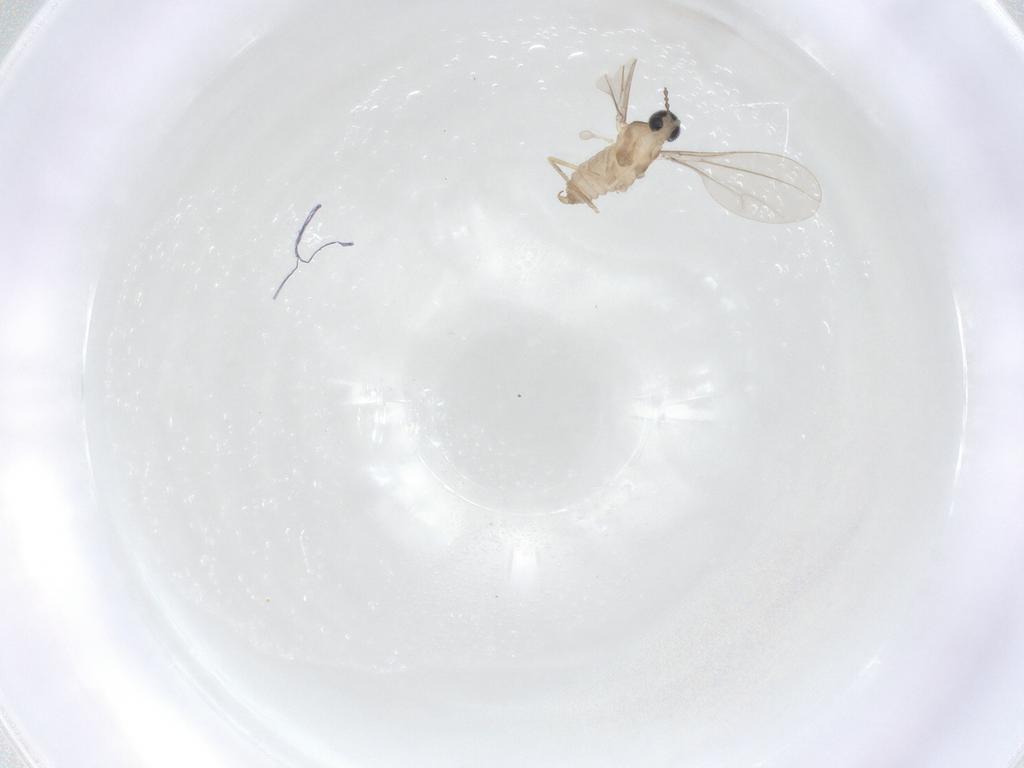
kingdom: Animalia
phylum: Arthropoda
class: Insecta
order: Diptera
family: Cecidomyiidae
